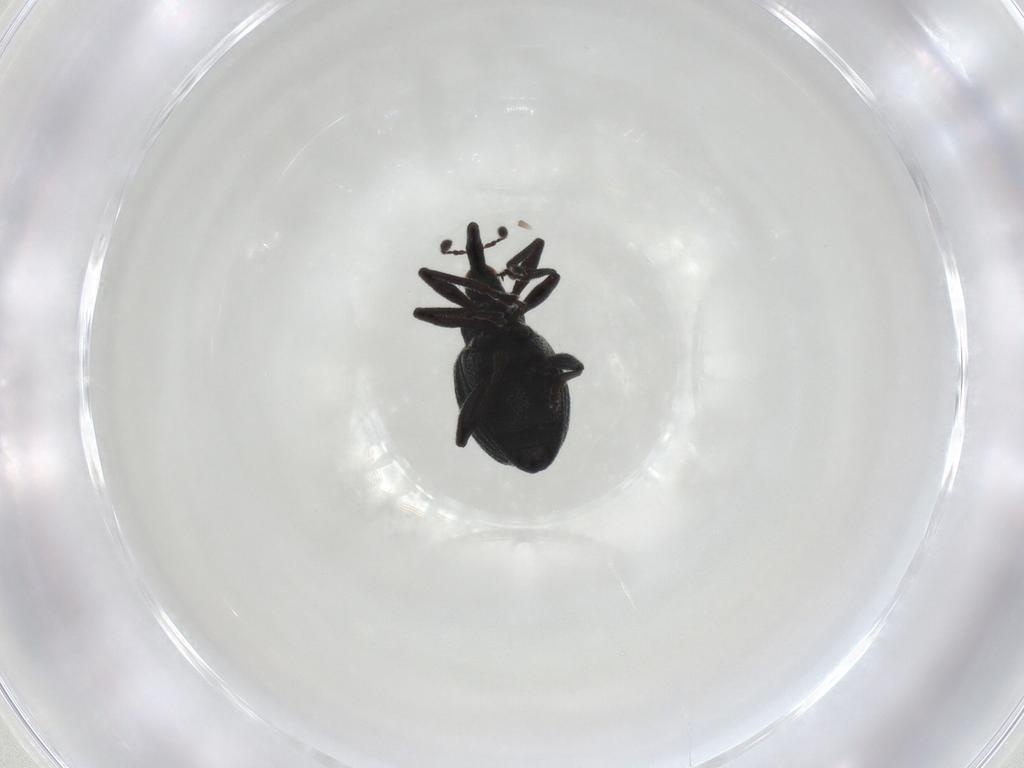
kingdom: Animalia
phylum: Arthropoda
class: Insecta
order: Coleoptera
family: Brentidae
